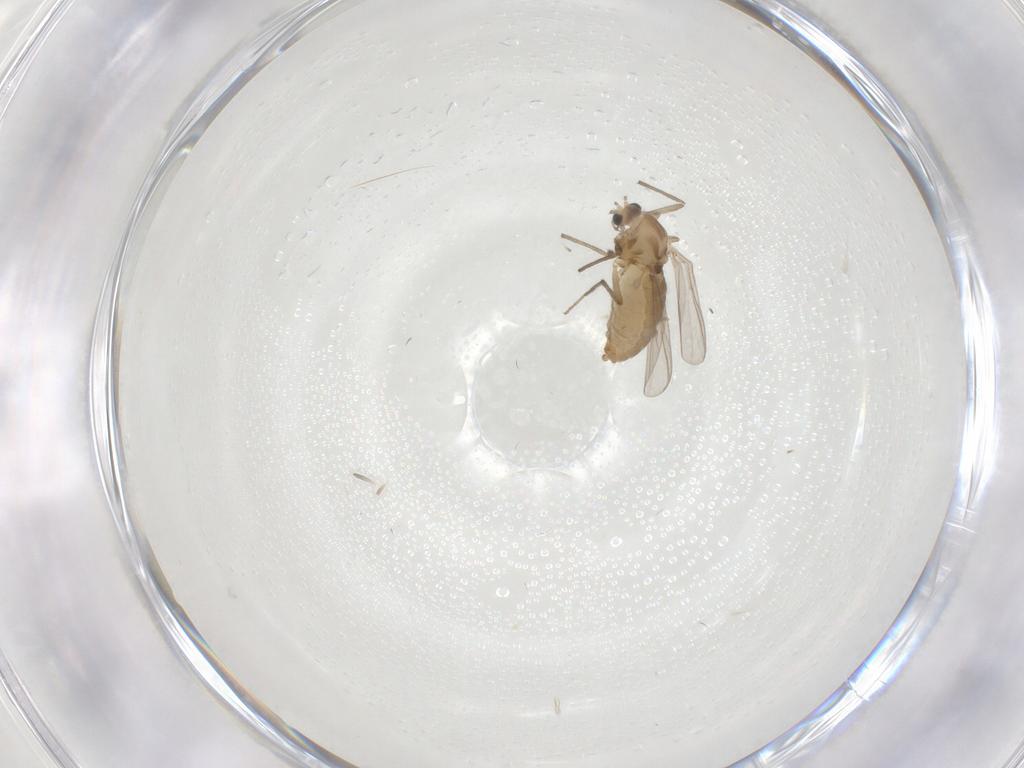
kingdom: Animalia
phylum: Arthropoda
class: Insecta
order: Diptera
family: Chironomidae
